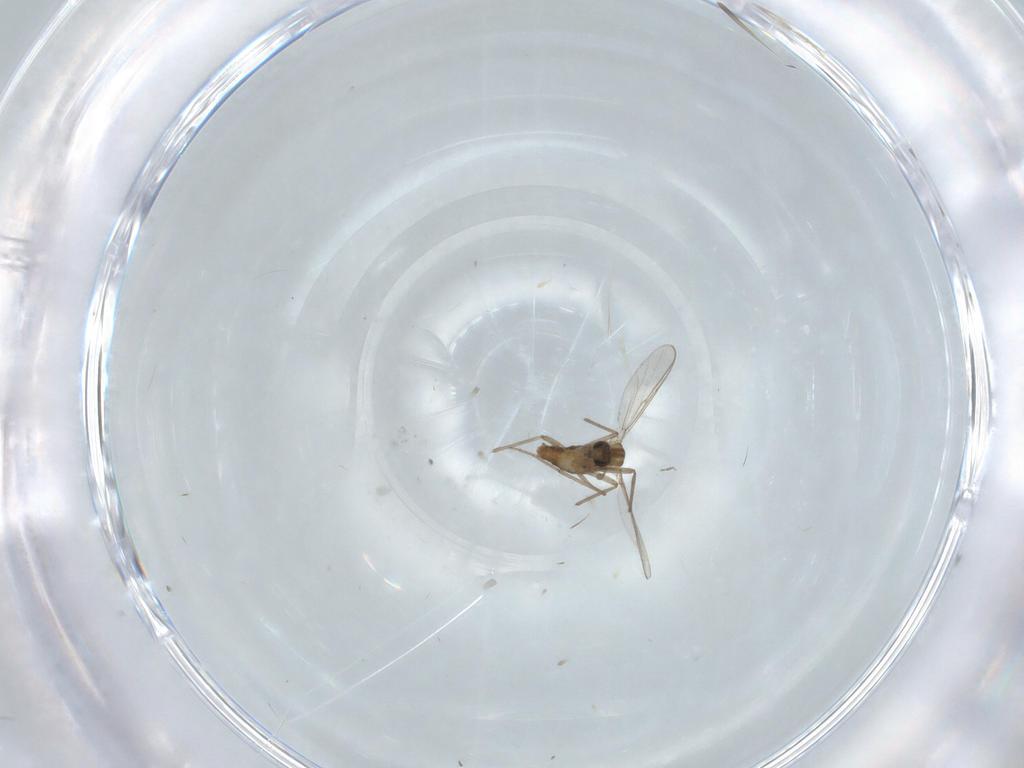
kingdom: Animalia
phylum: Arthropoda
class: Insecta
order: Diptera
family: Chironomidae
